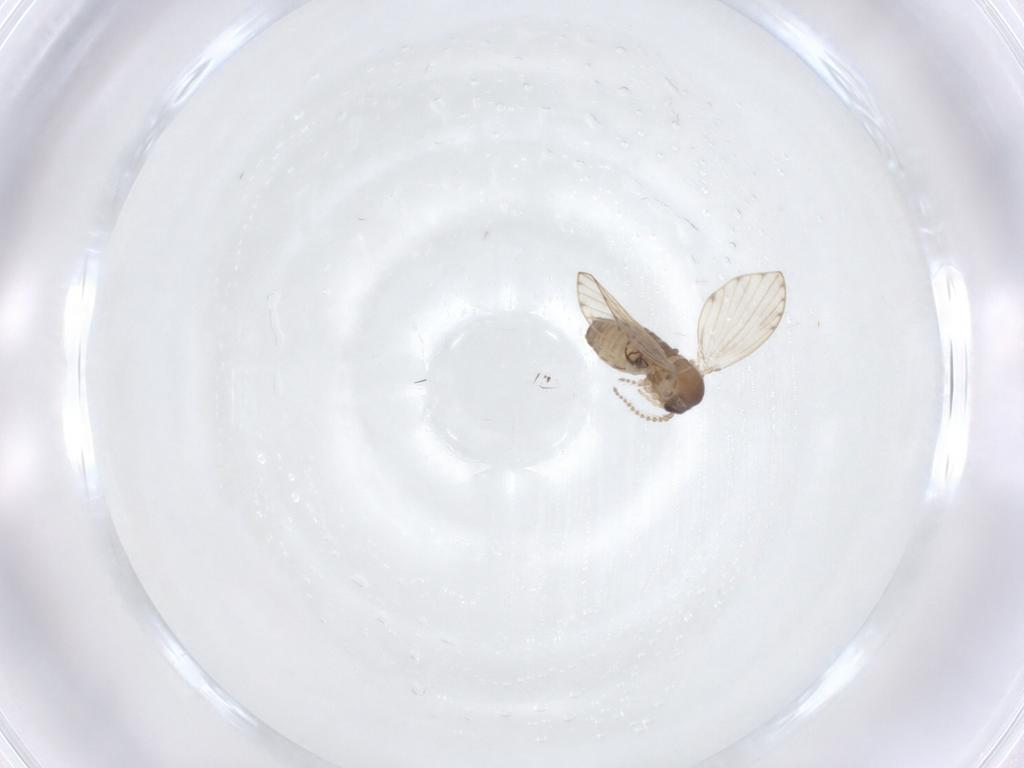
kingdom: Animalia
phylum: Arthropoda
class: Insecta
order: Diptera
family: Psychodidae
